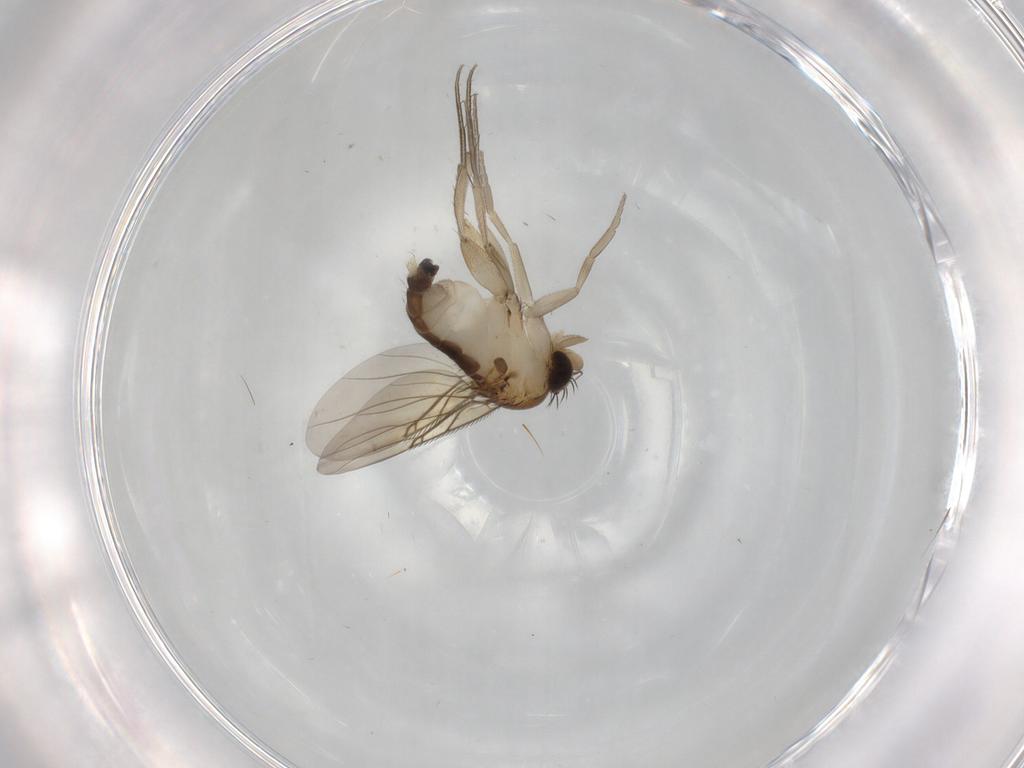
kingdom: Animalia
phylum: Arthropoda
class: Insecta
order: Diptera
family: Phoridae
